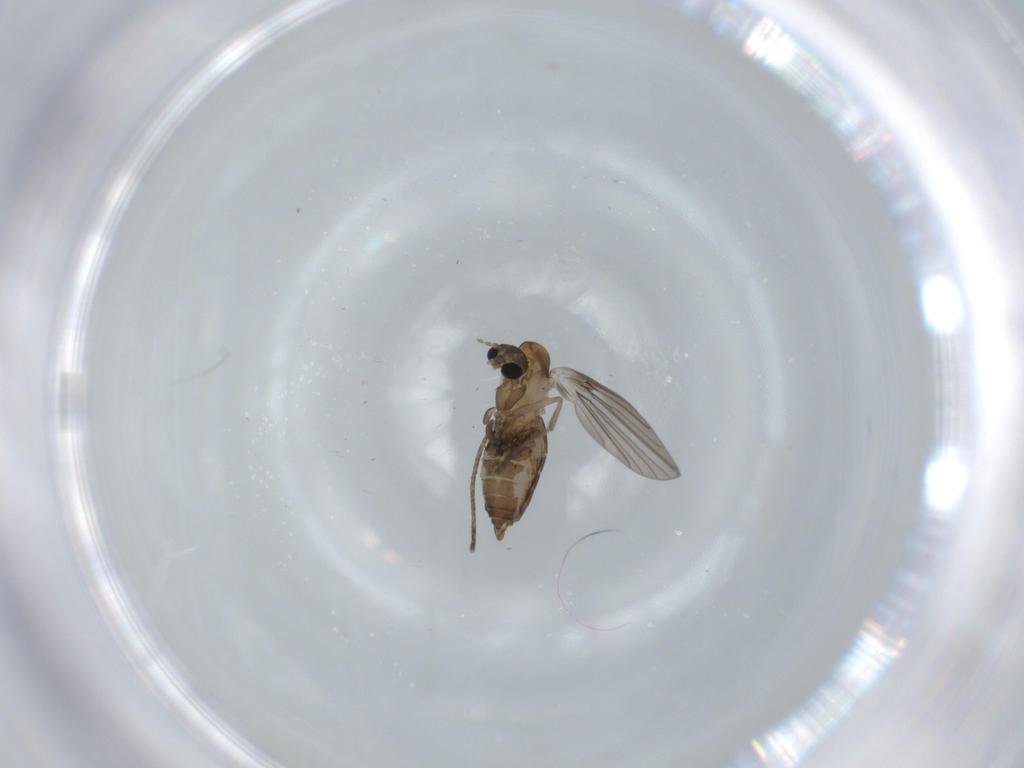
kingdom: Animalia
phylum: Arthropoda
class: Insecta
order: Diptera
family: Psychodidae
